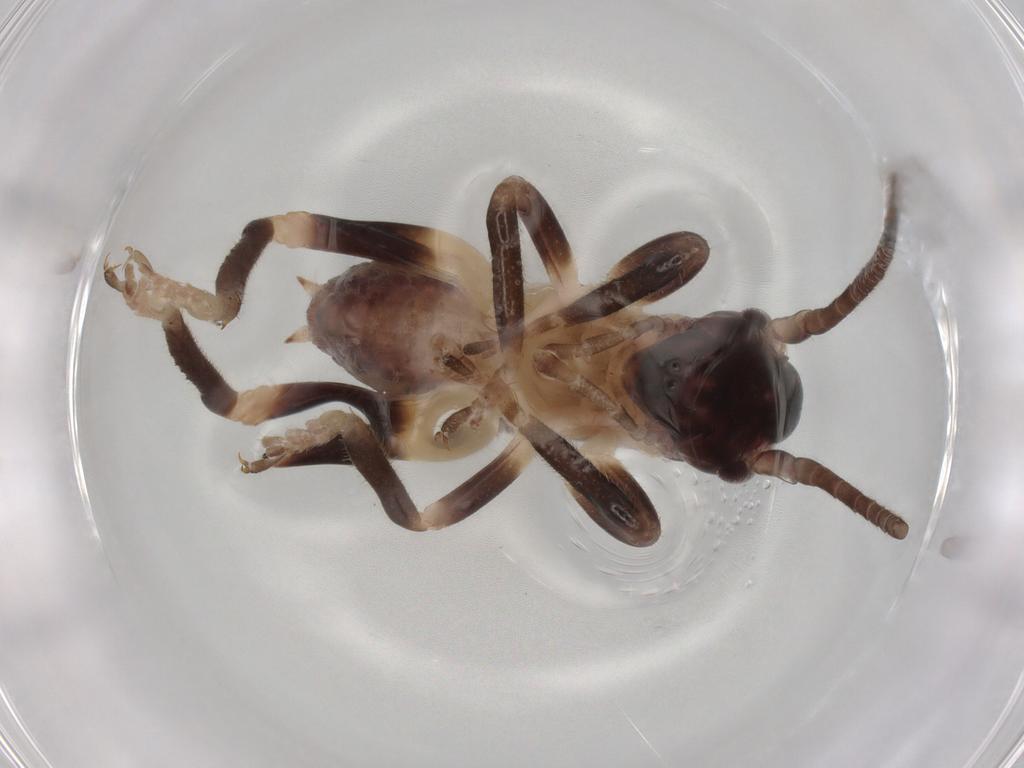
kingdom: Animalia
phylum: Arthropoda
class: Insecta
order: Orthoptera
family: Tettigoniidae
